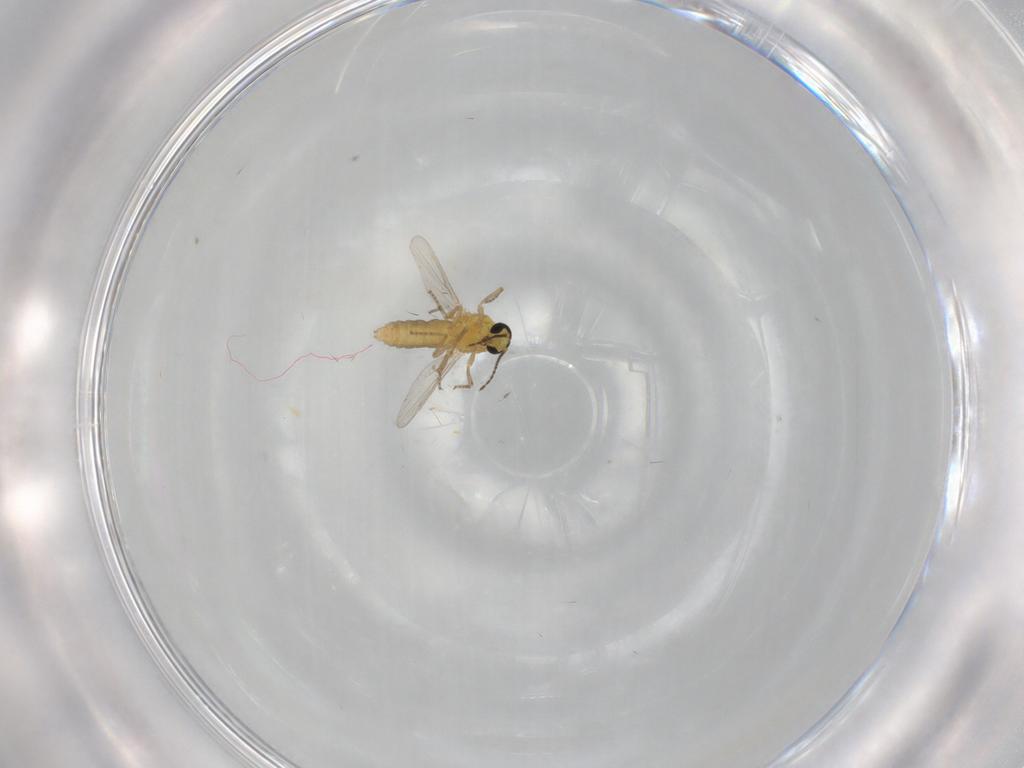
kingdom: Animalia
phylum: Arthropoda
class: Insecta
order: Diptera
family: Ceratopogonidae
